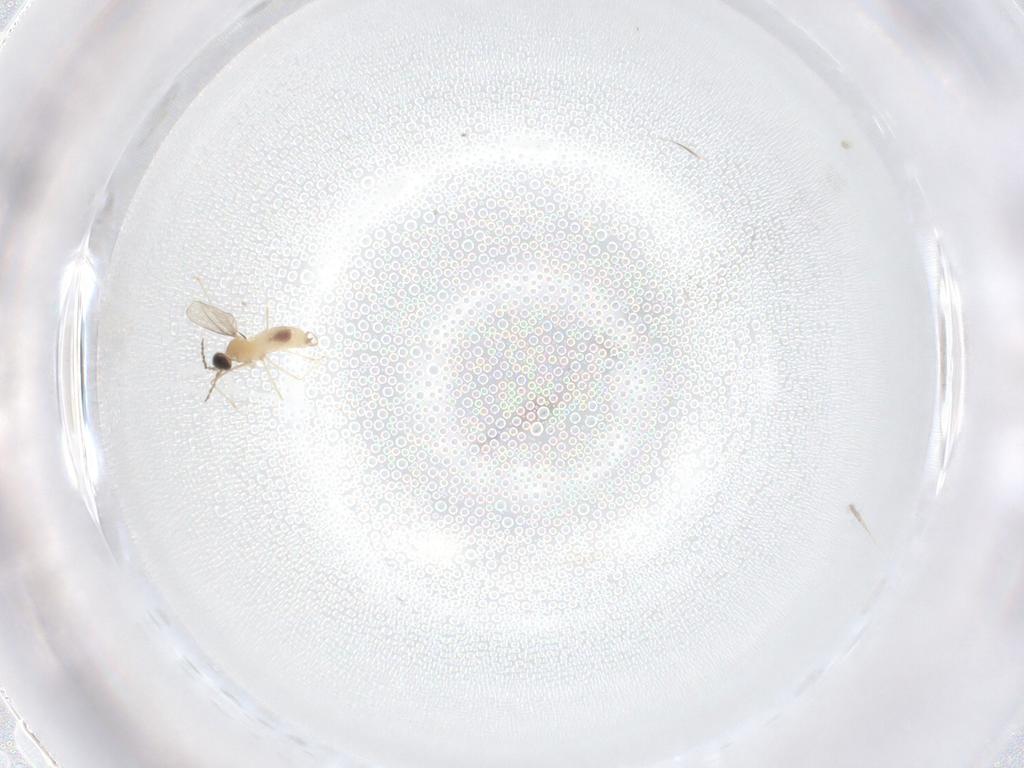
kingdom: Animalia
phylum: Arthropoda
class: Insecta
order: Diptera
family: Cecidomyiidae
